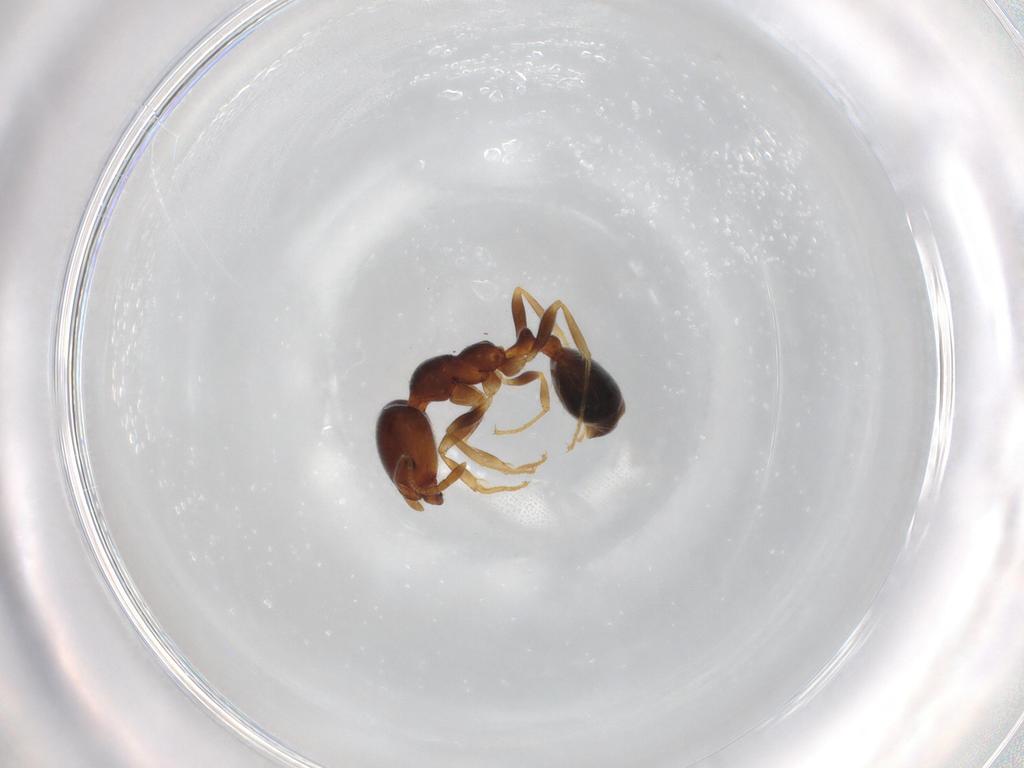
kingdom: Animalia
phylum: Arthropoda
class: Insecta
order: Hymenoptera
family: Formicidae
